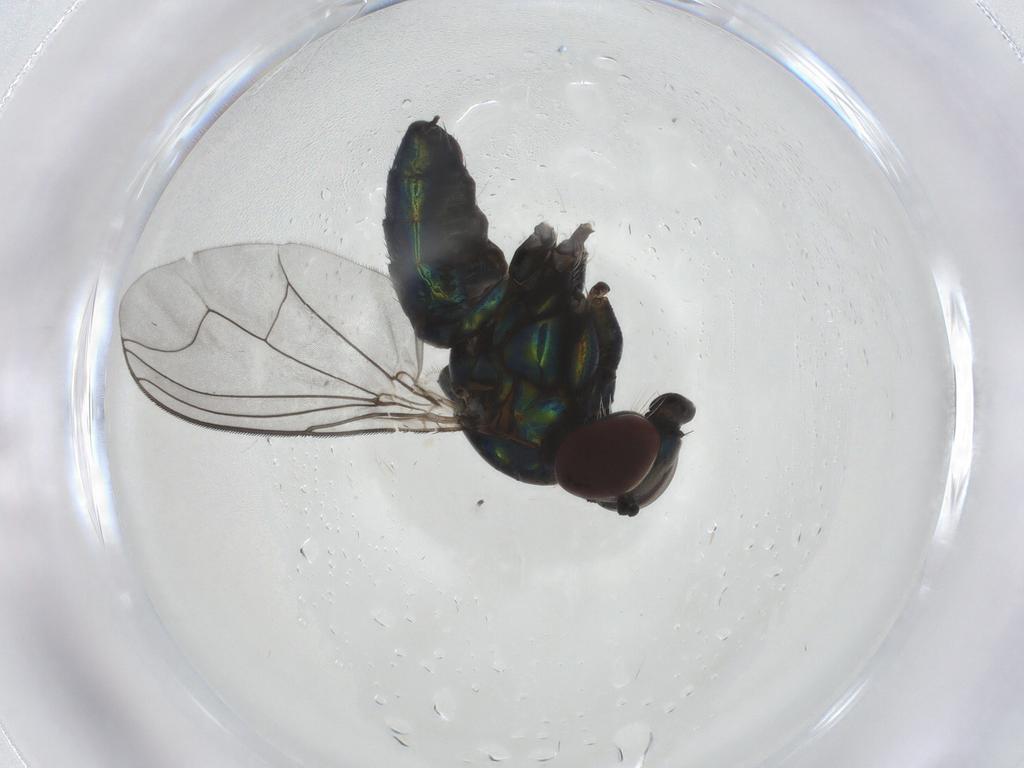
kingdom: Animalia
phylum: Arthropoda
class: Insecta
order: Diptera
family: Dolichopodidae
